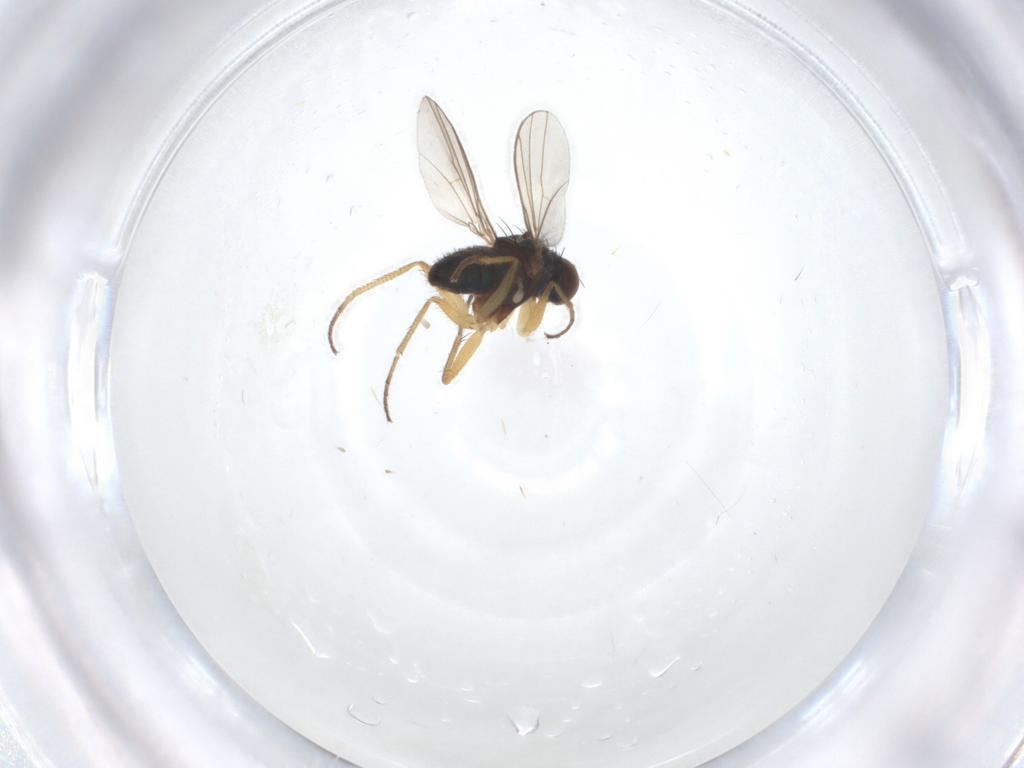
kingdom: Animalia
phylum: Arthropoda
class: Insecta
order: Diptera
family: Dolichopodidae
